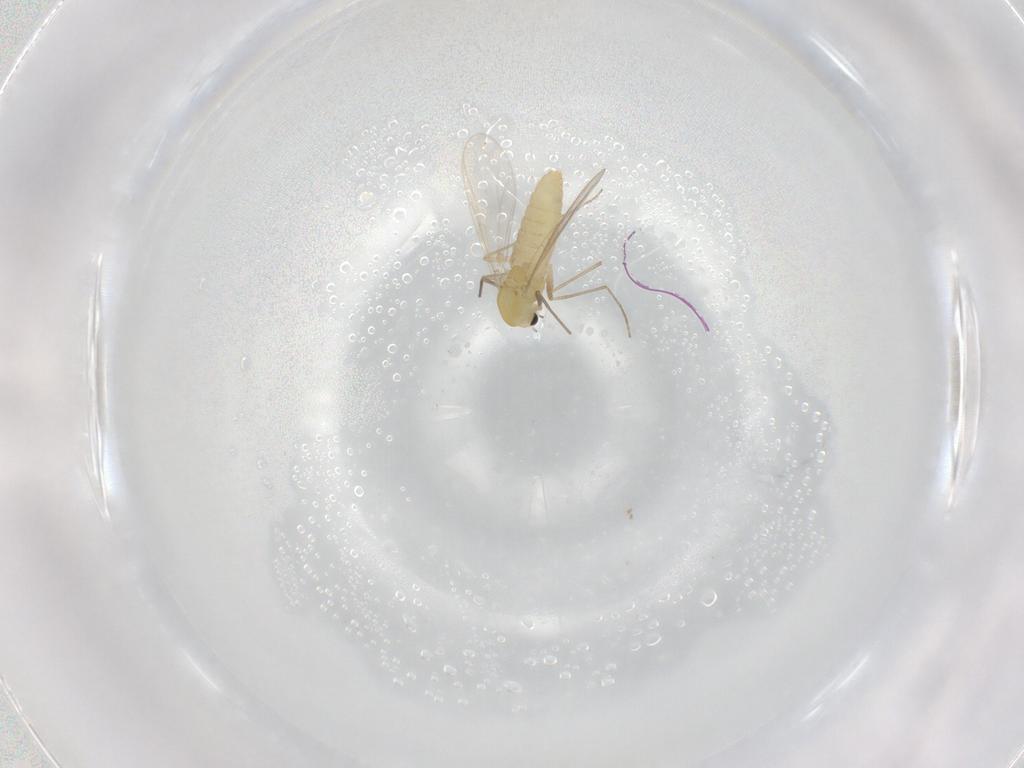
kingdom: Animalia
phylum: Arthropoda
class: Insecta
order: Diptera
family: Chironomidae
